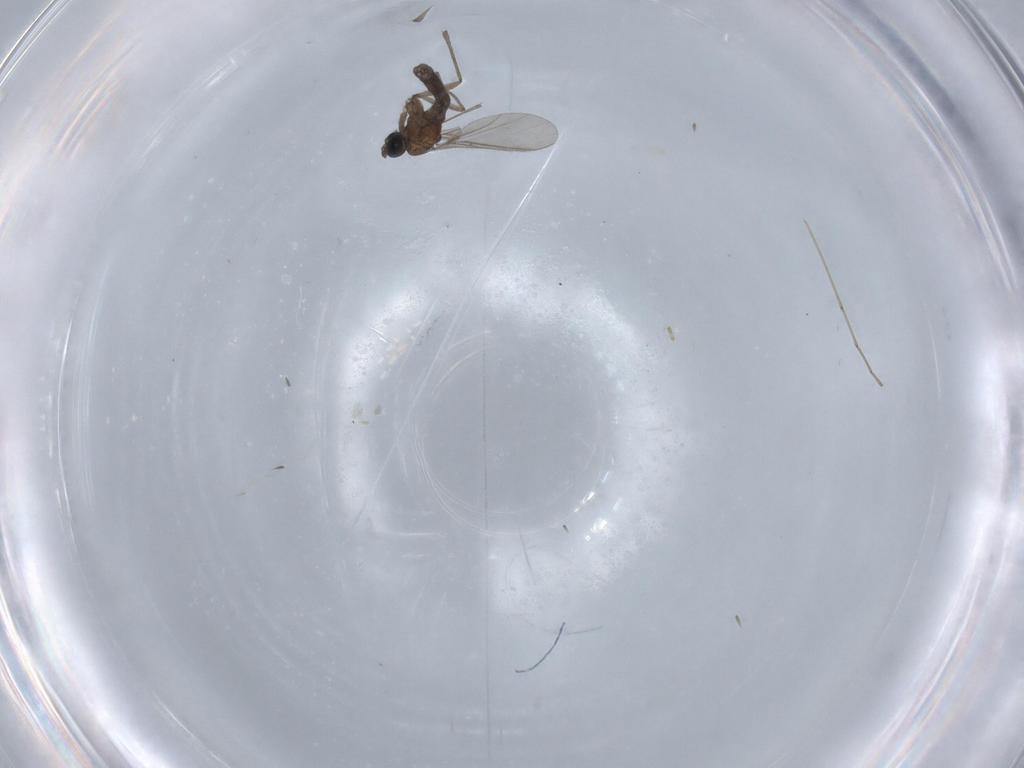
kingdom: Animalia
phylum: Arthropoda
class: Insecta
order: Diptera
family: Sciaridae
